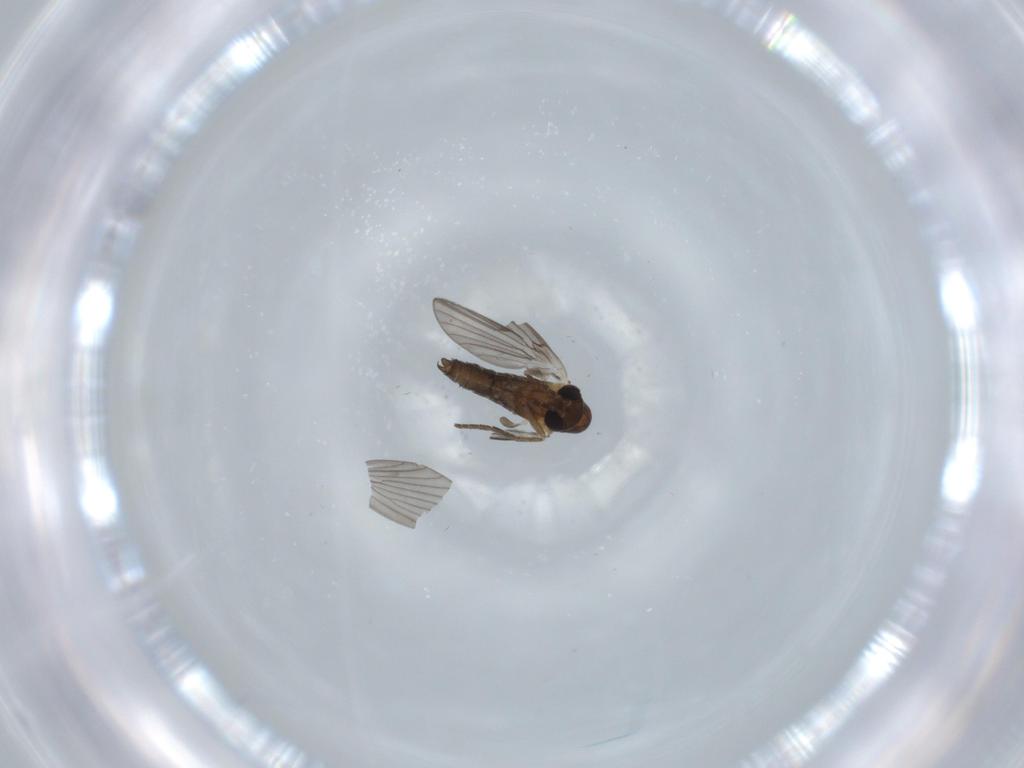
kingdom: Animalia
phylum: Arthropoda
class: Insecta
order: Diptera
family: Psychodidae
